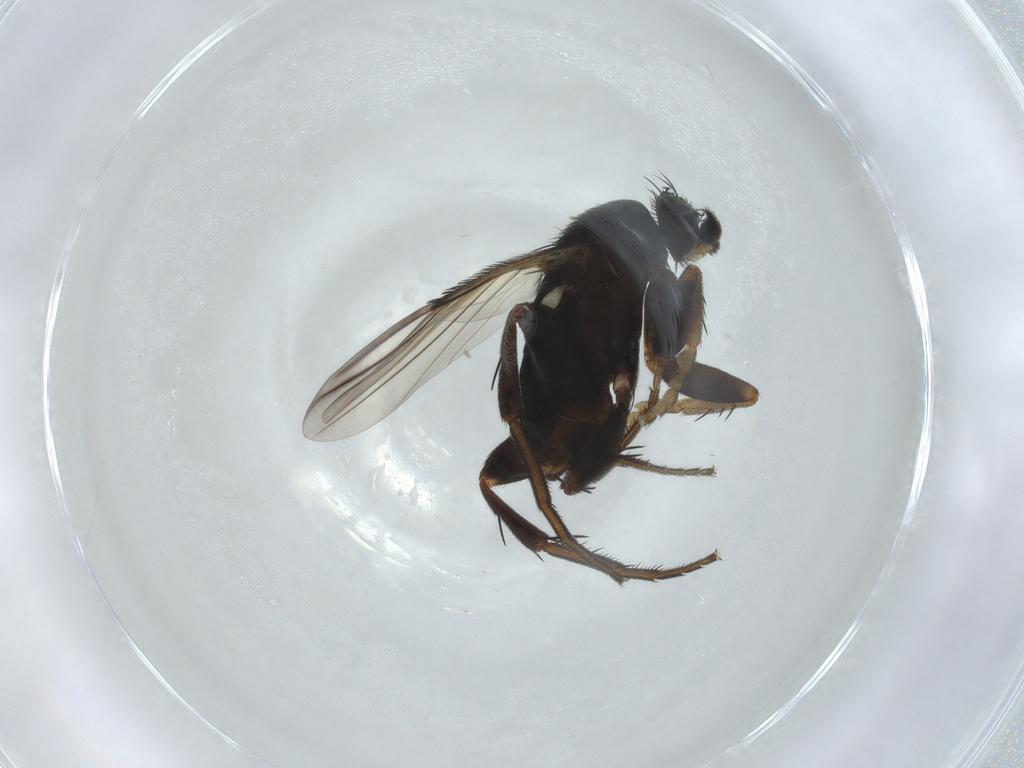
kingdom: Animalia
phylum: Arthropoda
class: Insecta
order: Diptera
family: Phoridae
